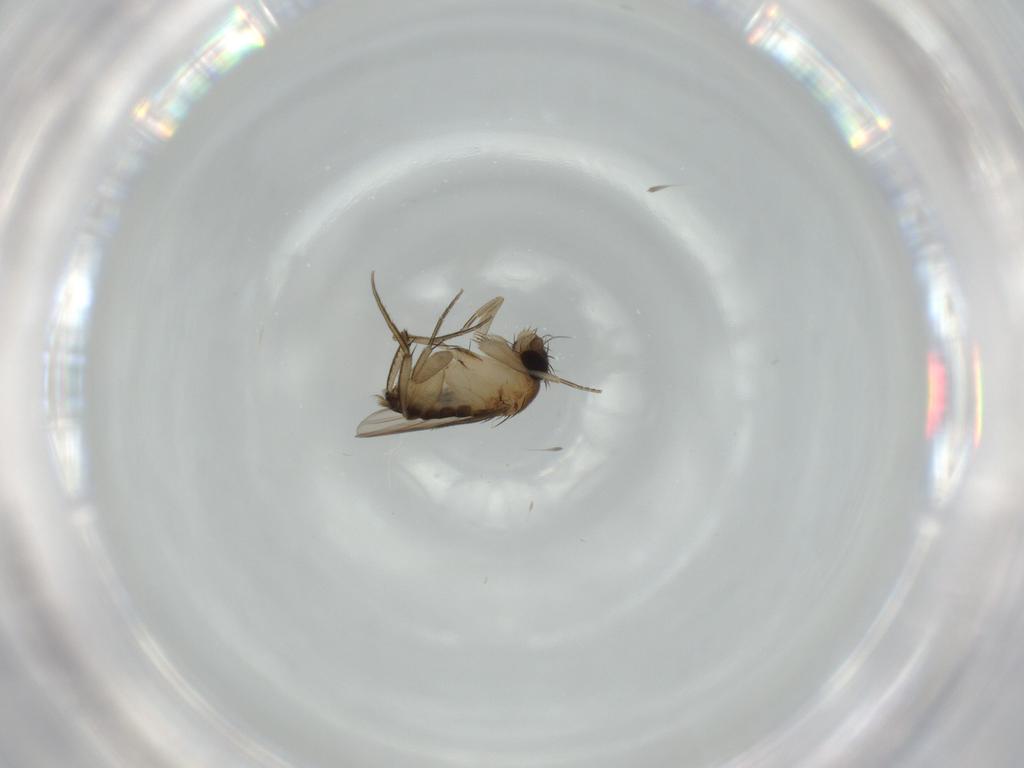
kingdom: Animalia
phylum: Arthropoda
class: Insecta
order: Diptera
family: Phoridae
